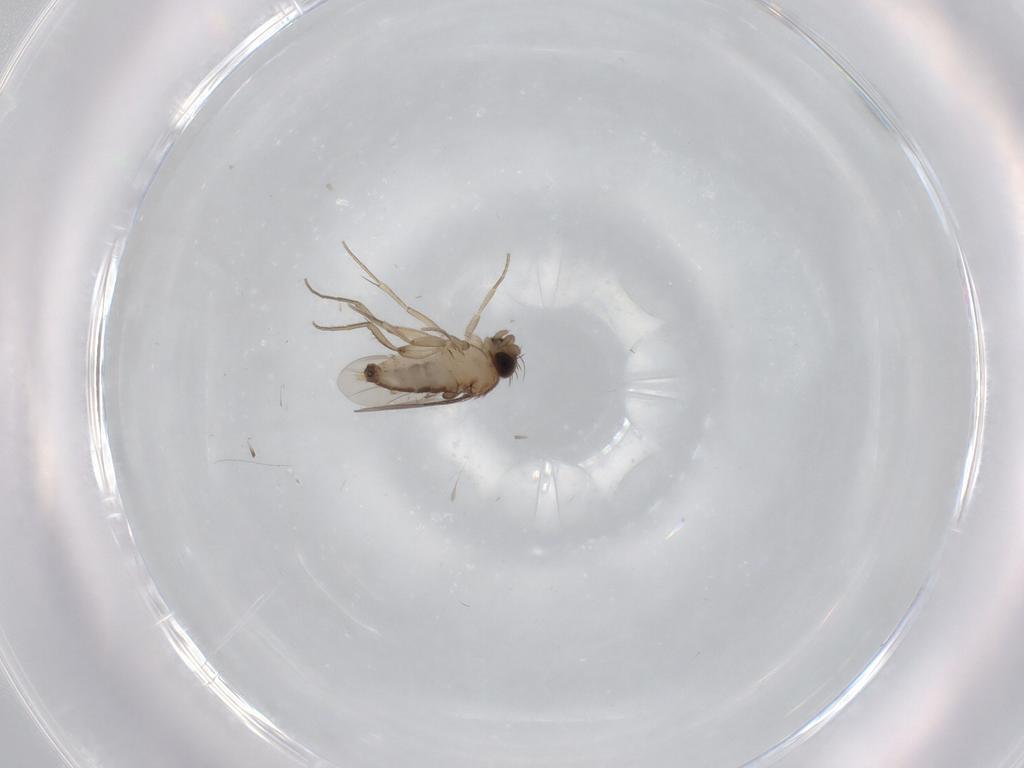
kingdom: Animalia
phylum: Arthropoda
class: Insecta
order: Diptera
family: Phoridae
